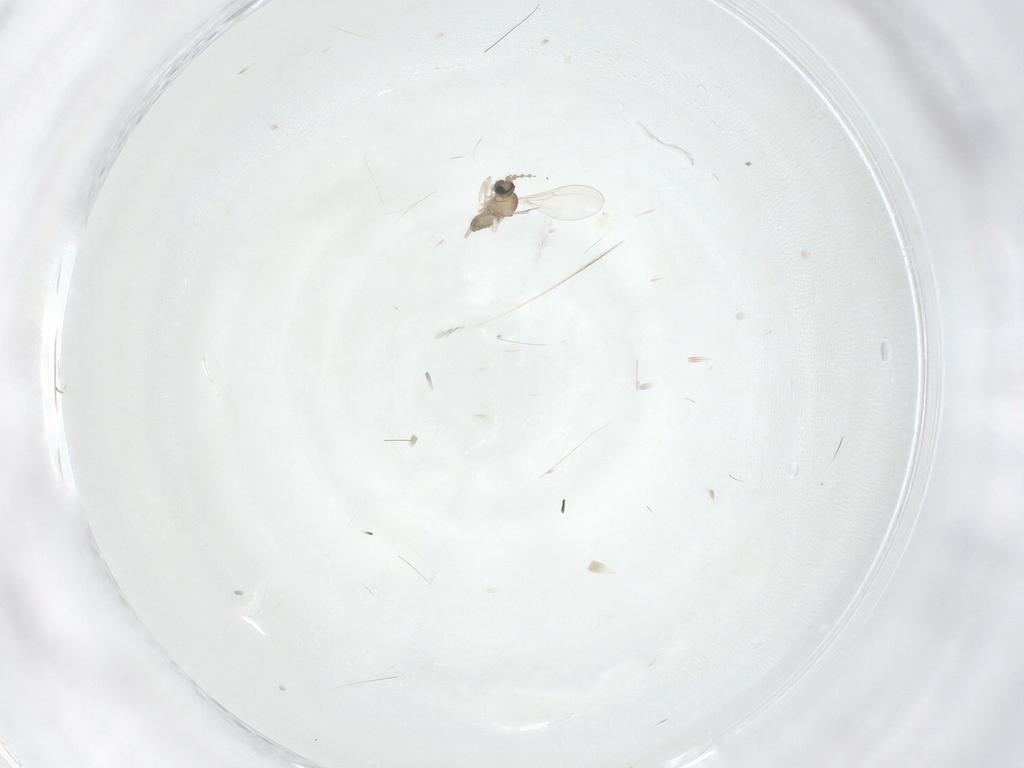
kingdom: Animalia
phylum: Arthropoda
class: Insecta
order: Diptera
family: Cecidomyiidae
